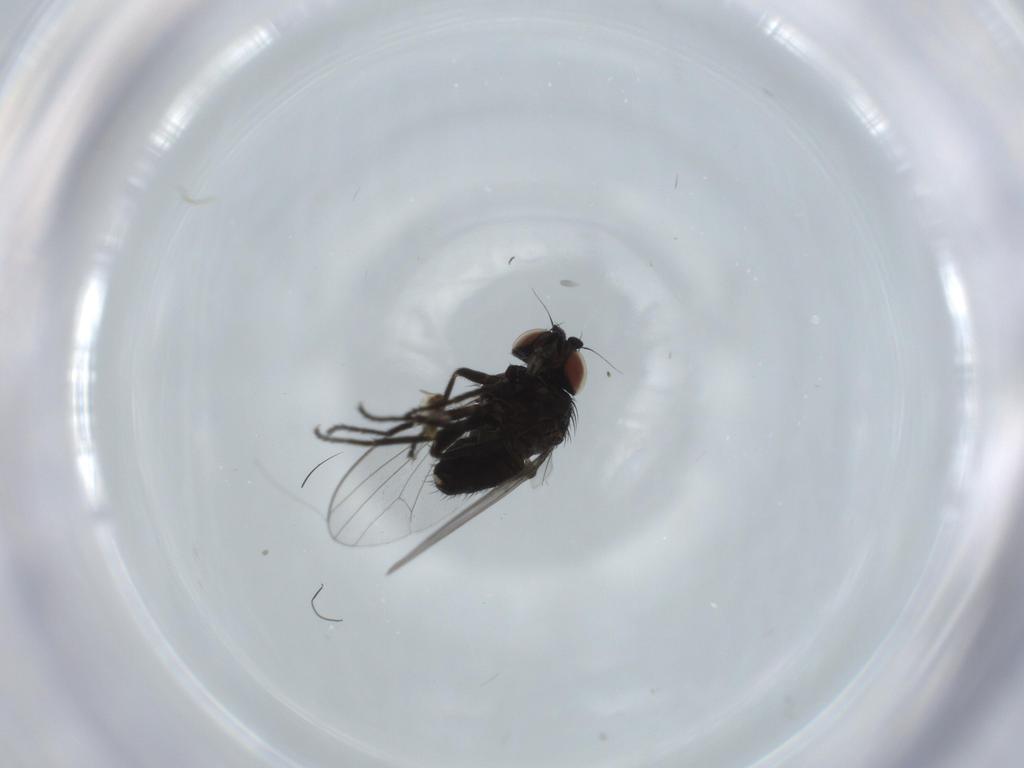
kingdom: Animalia
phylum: Arthropoda
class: Insecta
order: Diptera
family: Milichiidae
